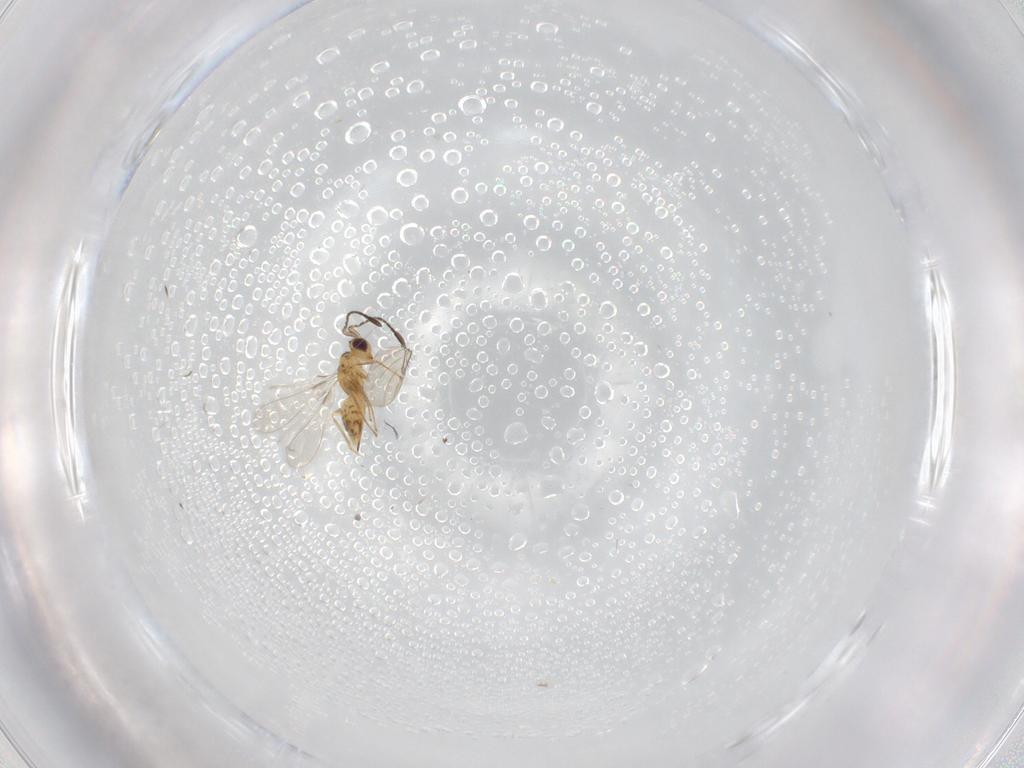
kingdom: Animalia
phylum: Arthropoda
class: Insecta
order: Hymenoptera
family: Mymaridae
